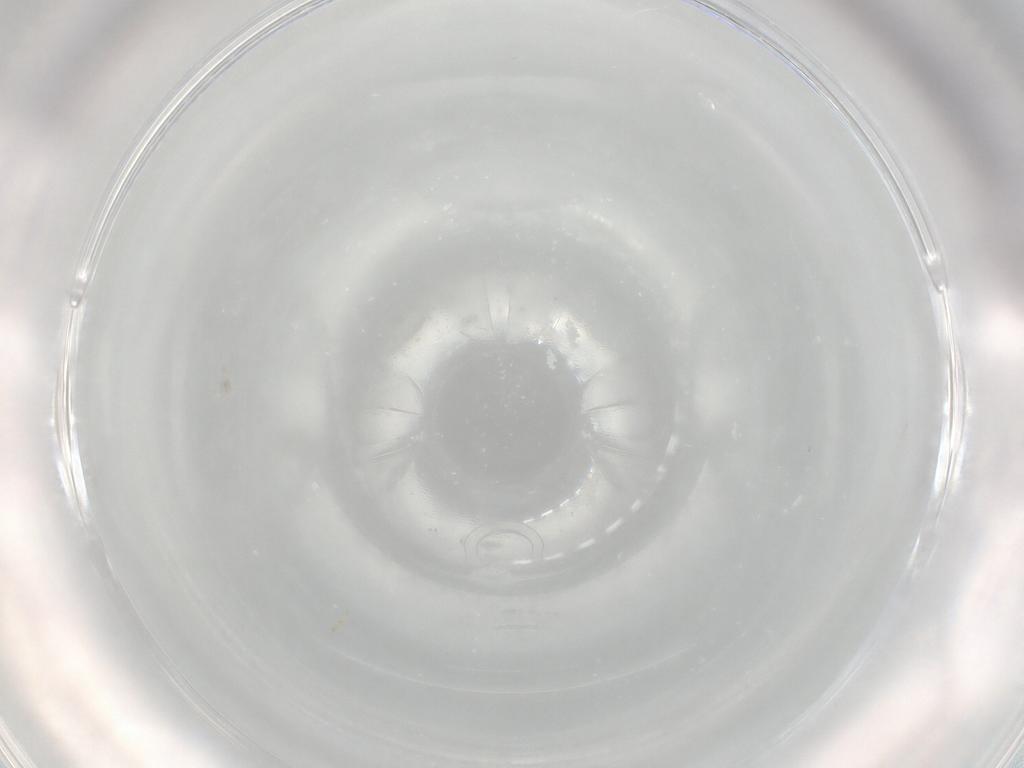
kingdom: Animalia
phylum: Arthropoda
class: Insecta
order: Diptera
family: Cecidomyiidae
